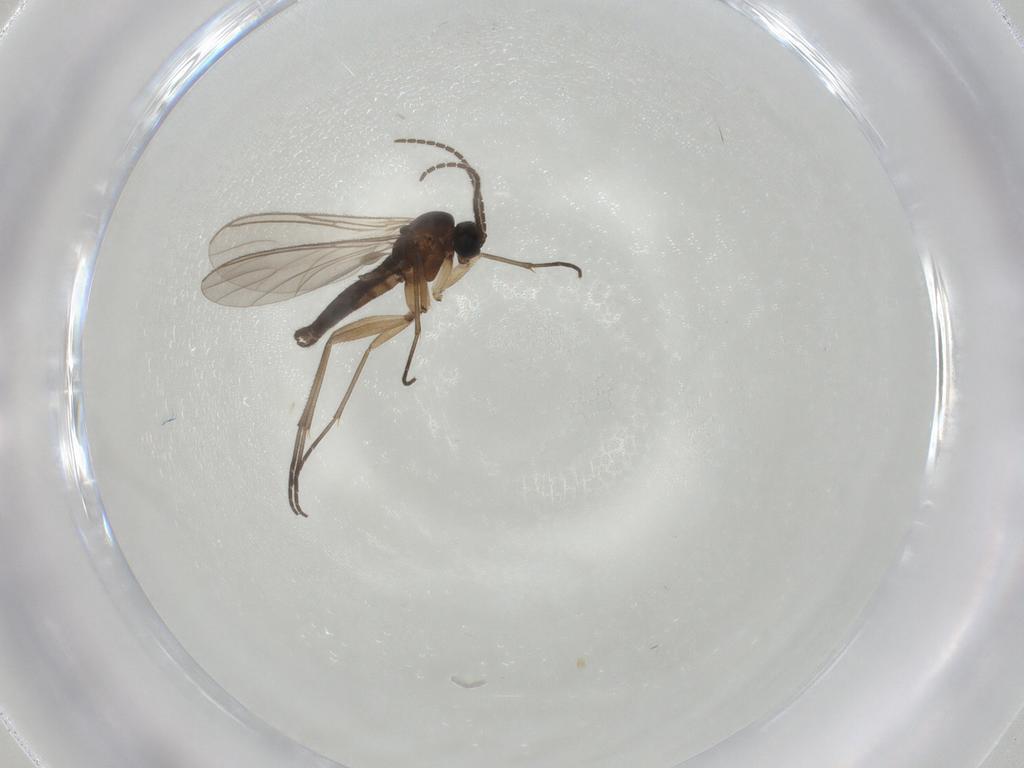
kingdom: Animalia
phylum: Arthropoda
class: Insecta
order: Diptera
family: Sciaridae
